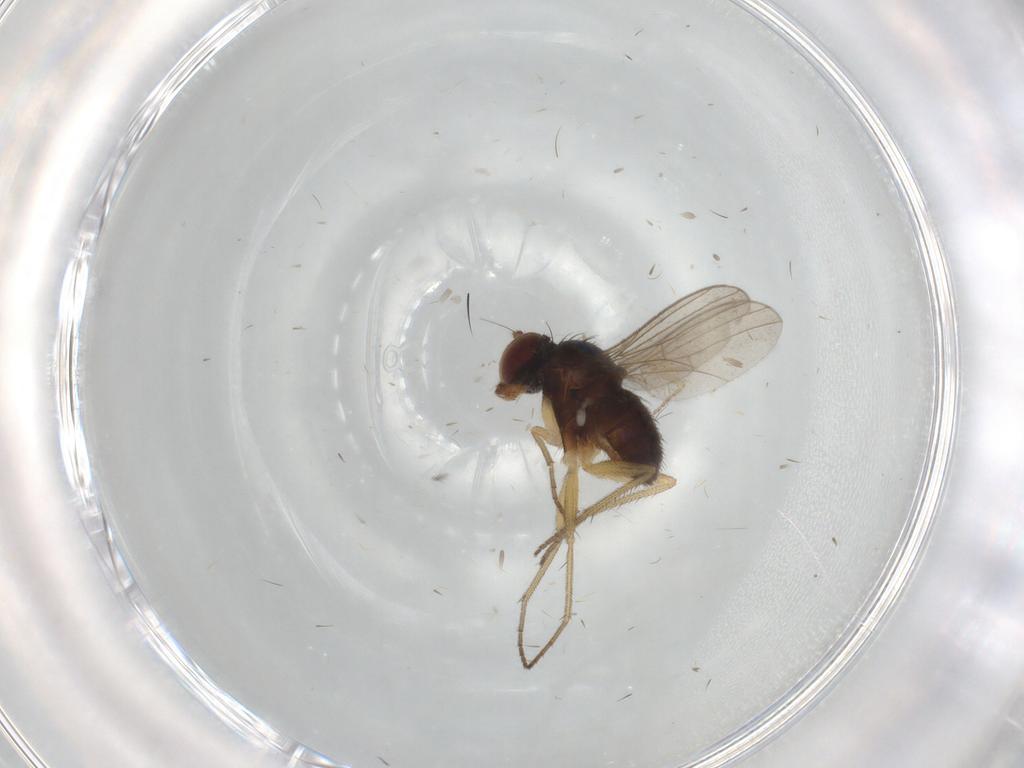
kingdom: Animalia
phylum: Arthropoda
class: Insecta
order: Diptera
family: Dolichopodidae
